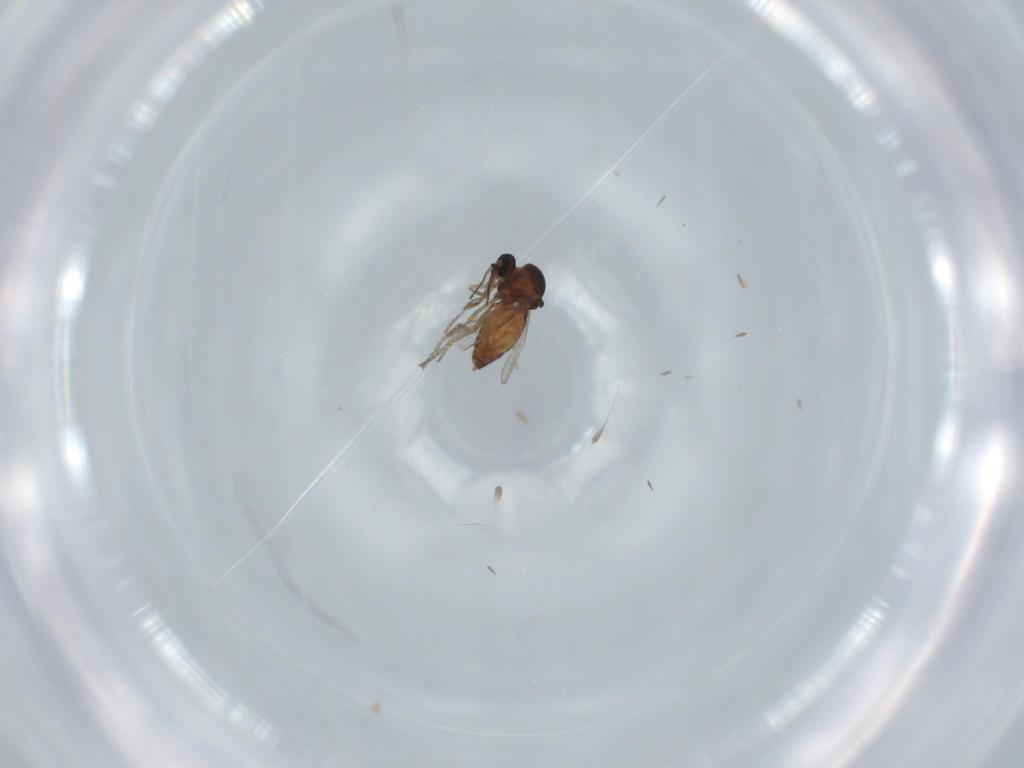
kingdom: Animalia
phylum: Arthropoda
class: Insecta
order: Diptera
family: Ceratopogonidae
